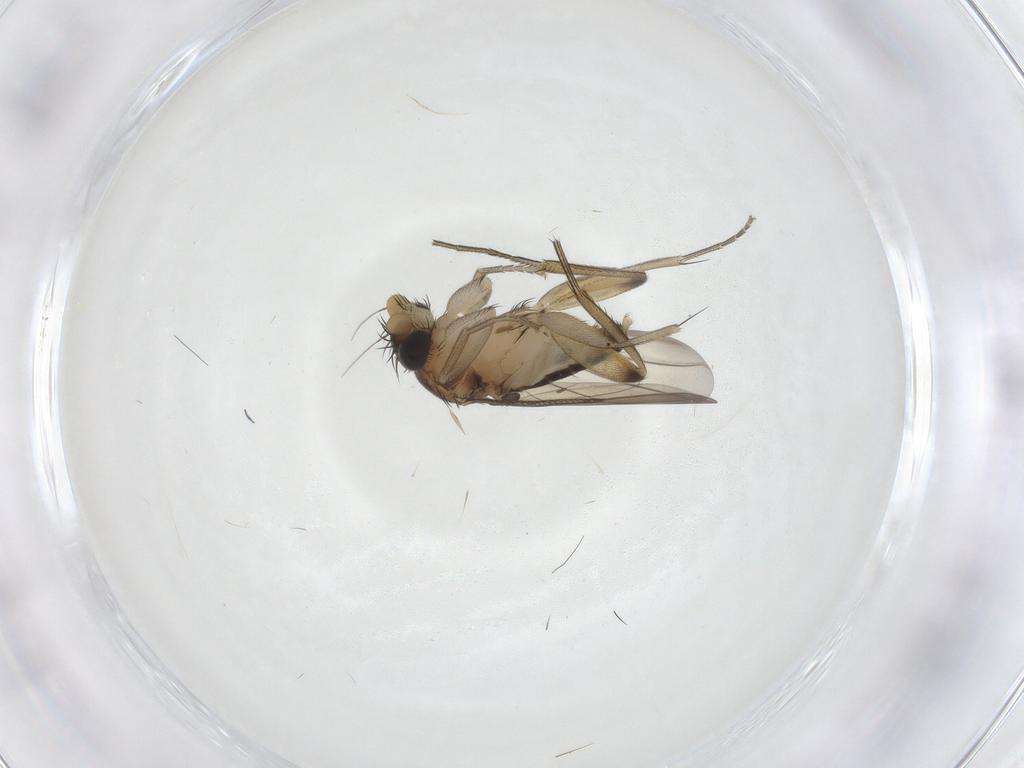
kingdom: Animalia
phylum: Arthropoda
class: Insecta
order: Diptera
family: Phoridae
